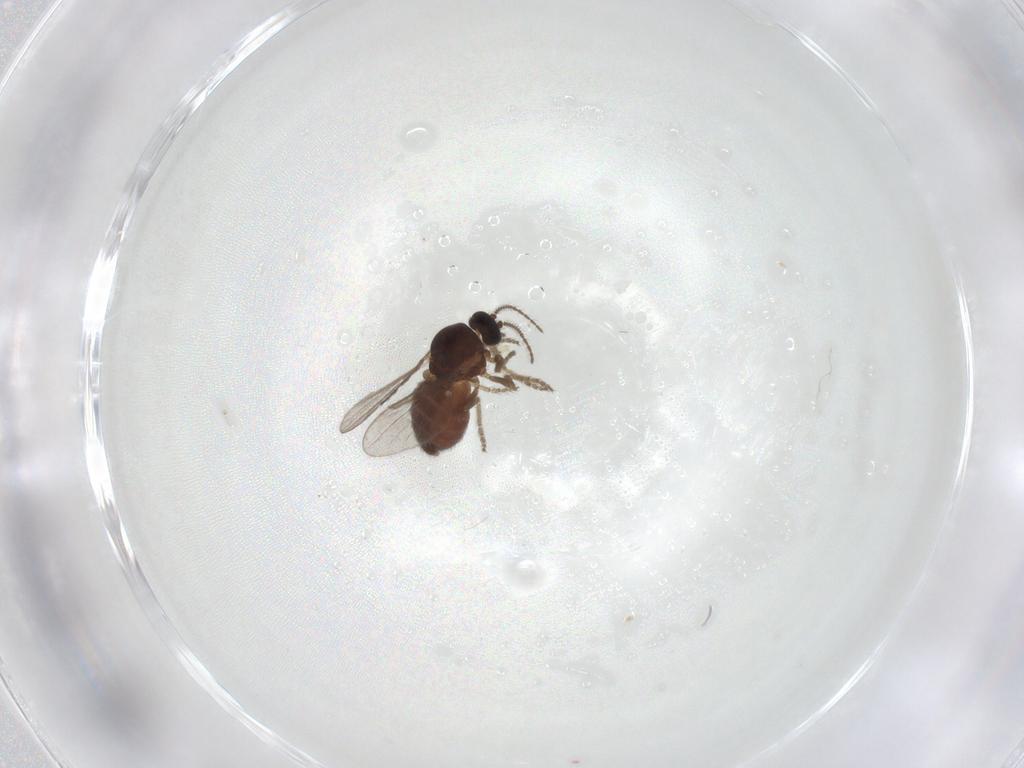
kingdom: Animalia
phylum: Arthropoda
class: Insecta
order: Diptera
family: Ceratopogonidae
